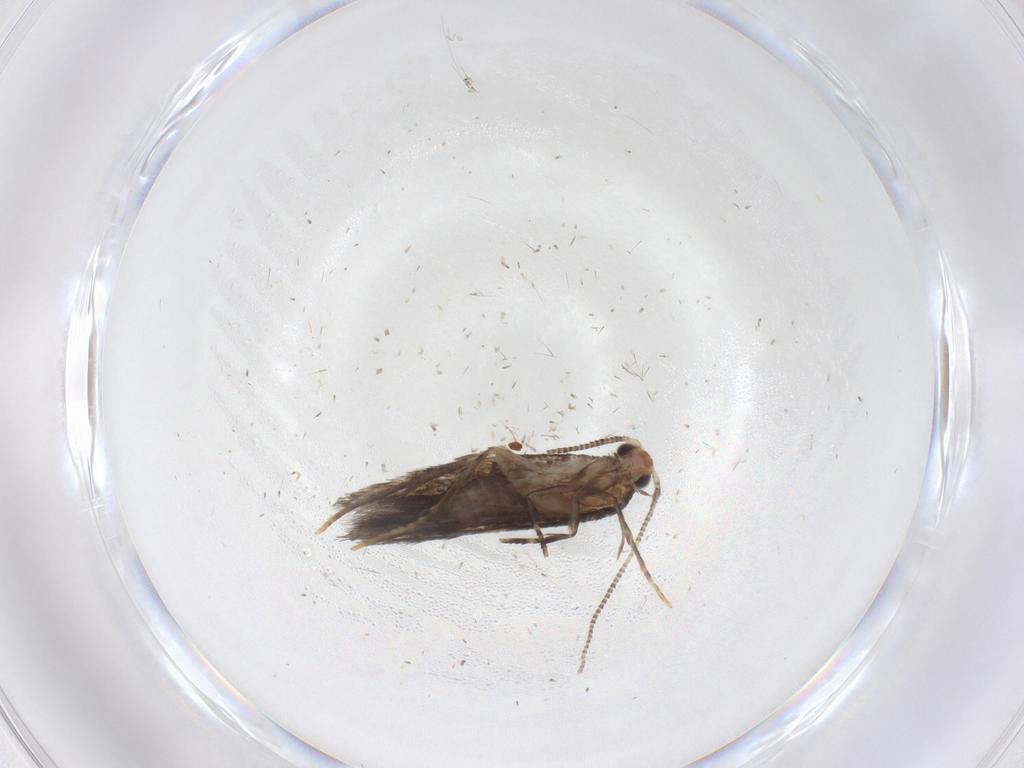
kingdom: Animalia
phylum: Arthropoda
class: Insecta
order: Lepidoptera
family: Tineidae
